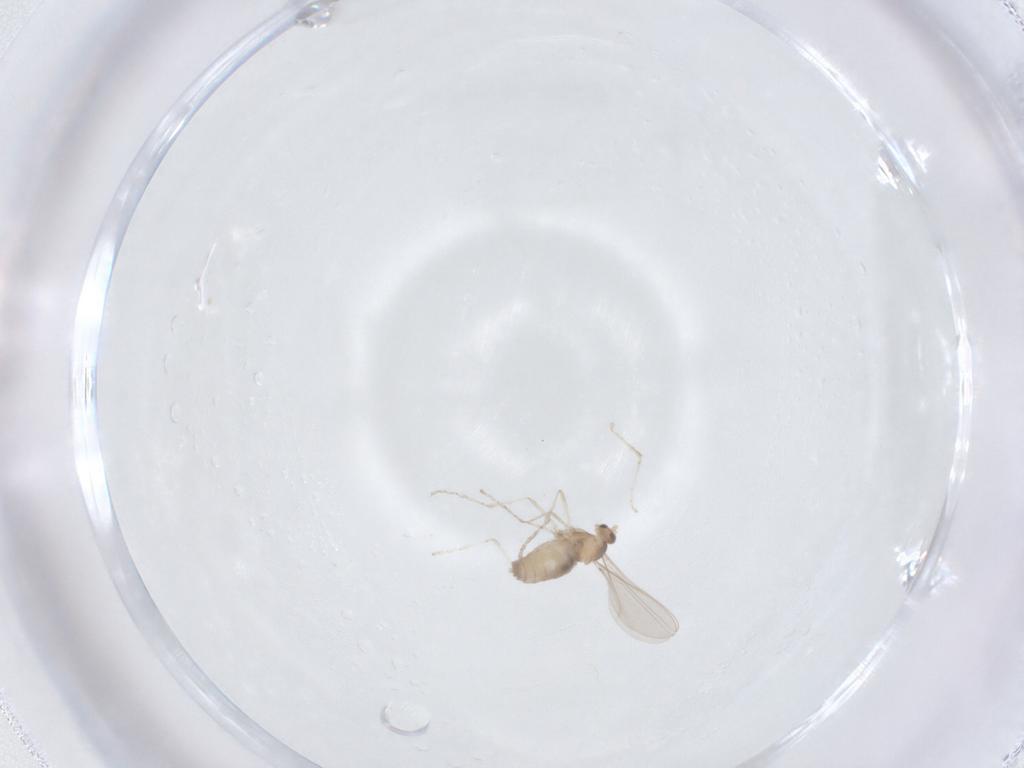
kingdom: Animalia
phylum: Arthropoda
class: Insecta
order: Diptera
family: Cecidomyiidae
